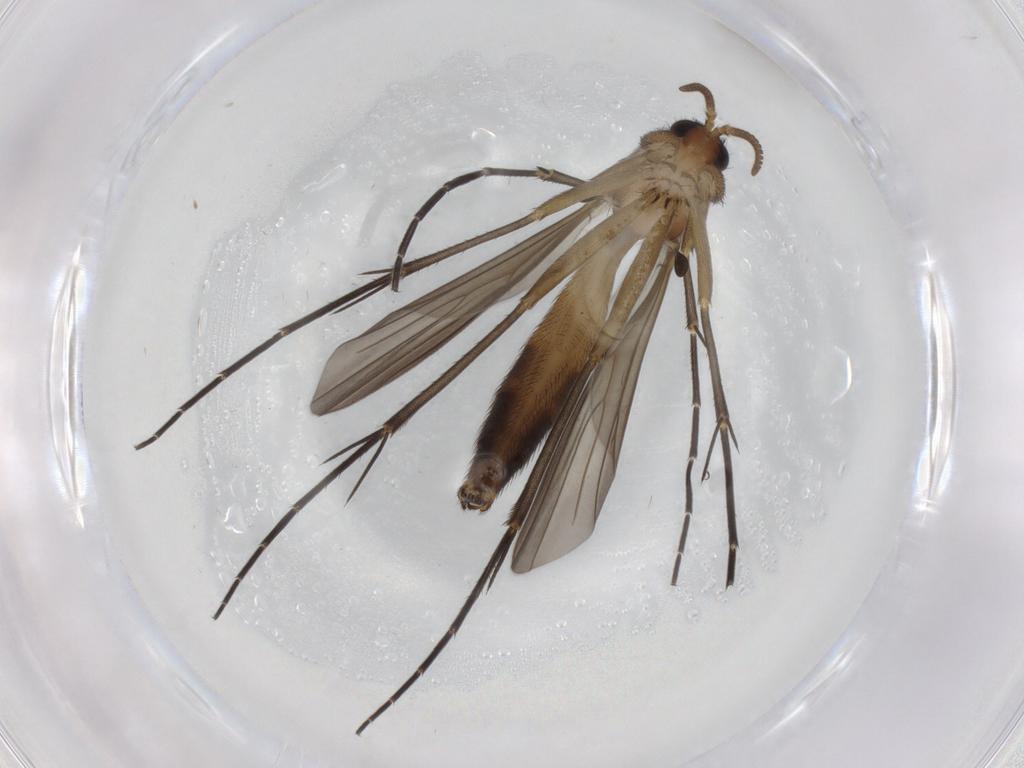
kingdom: Animalia
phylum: Arthropoda
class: Insecta
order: Diptera
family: Mycetophilidae
